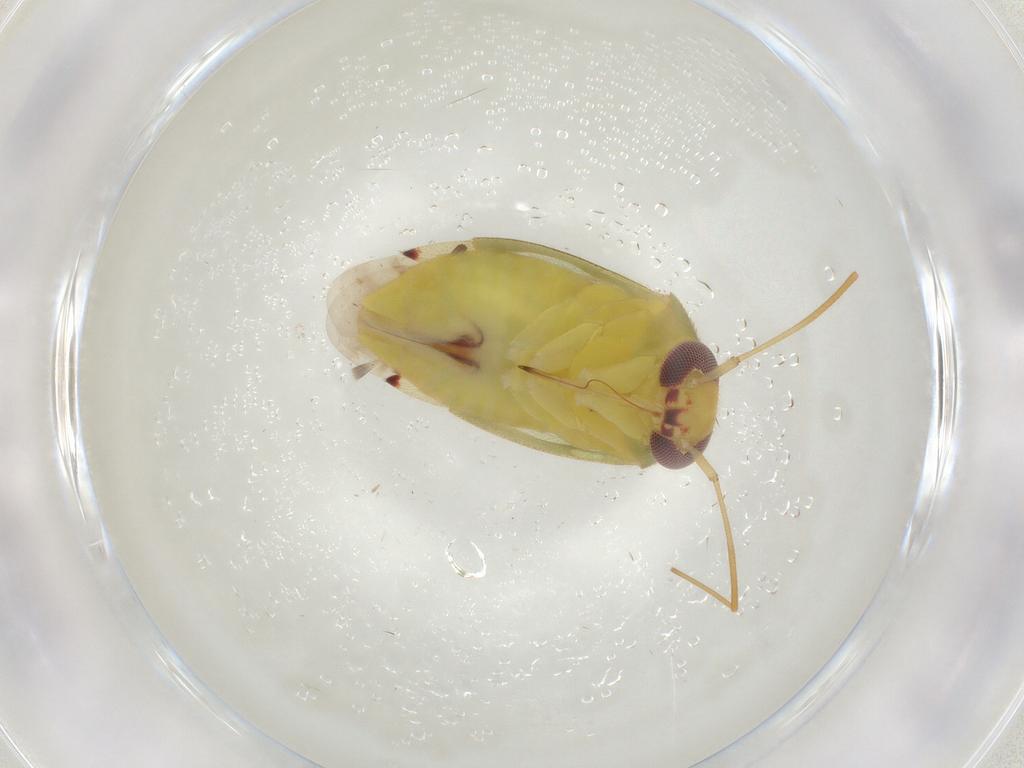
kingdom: Animalia
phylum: Arthropoda
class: Insecta
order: Hemiptera
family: Miridae
